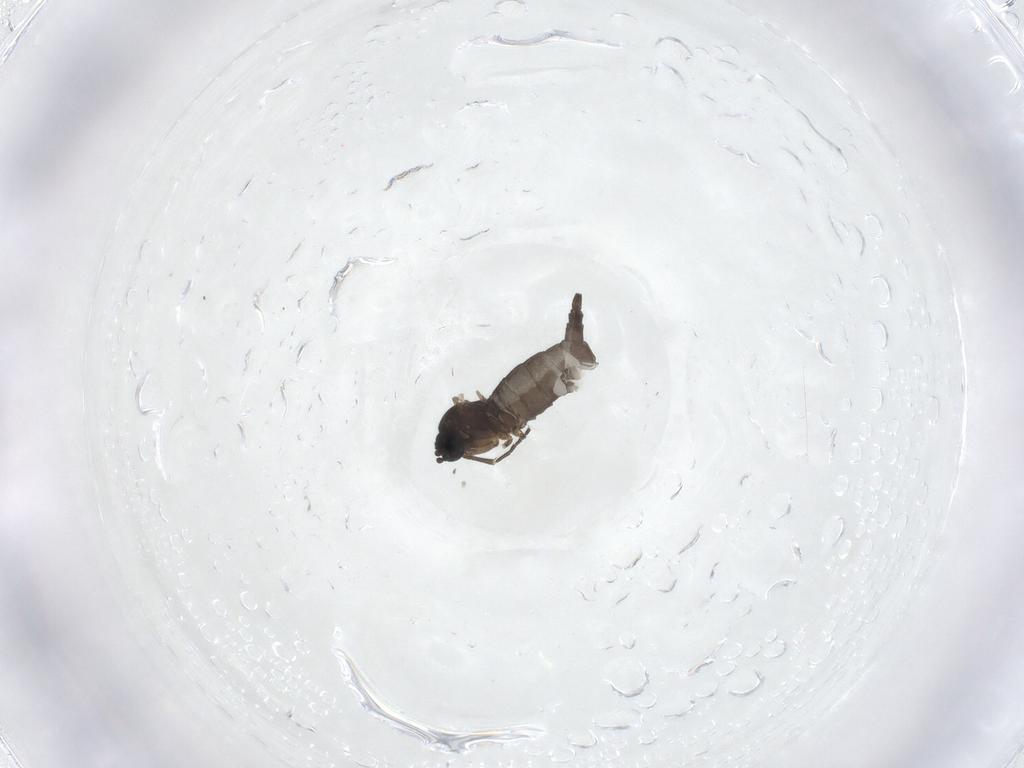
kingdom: Animalia
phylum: Arthropoda
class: Insecta
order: Diptera
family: Sciaridae
